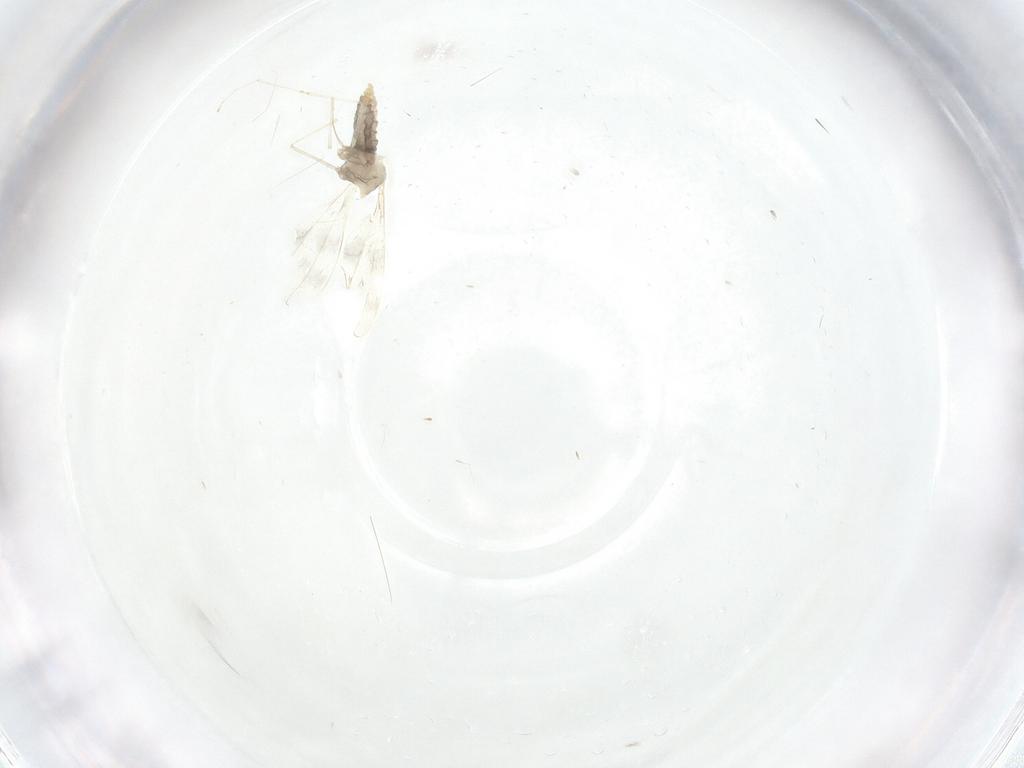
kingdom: Animalia
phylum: Arthropoda
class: Insecta
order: Diptera
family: Cecidomyiidae
